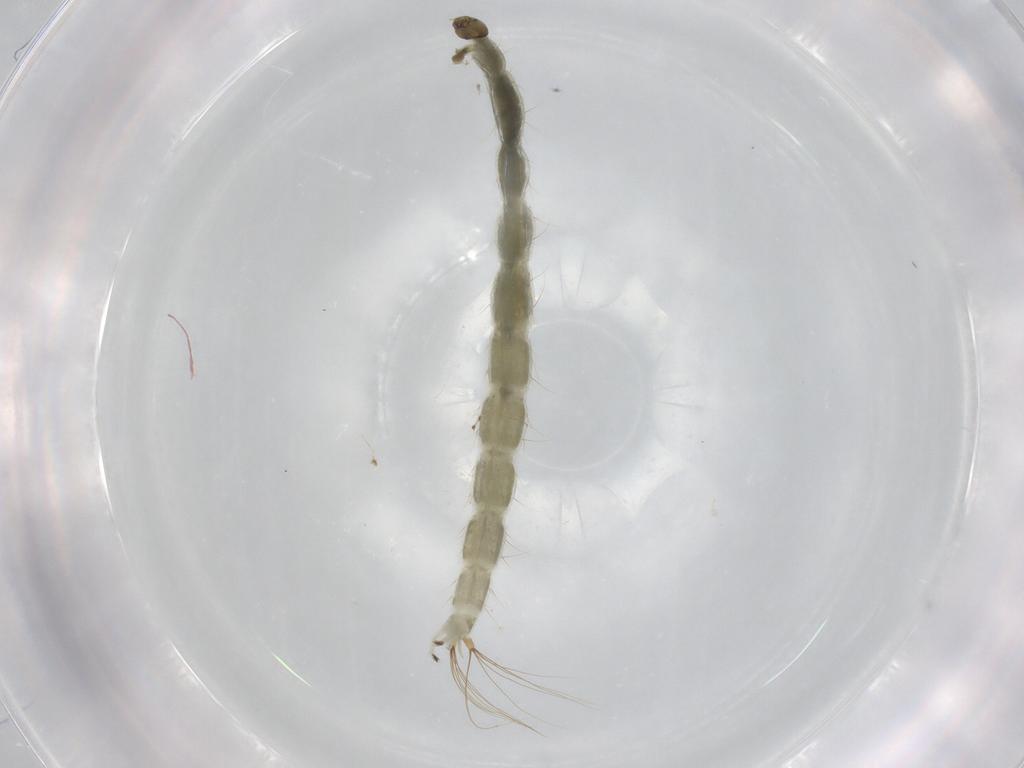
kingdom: Animalia
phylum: Arthropoda
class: Insecta
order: Diptera
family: Chironomidae
